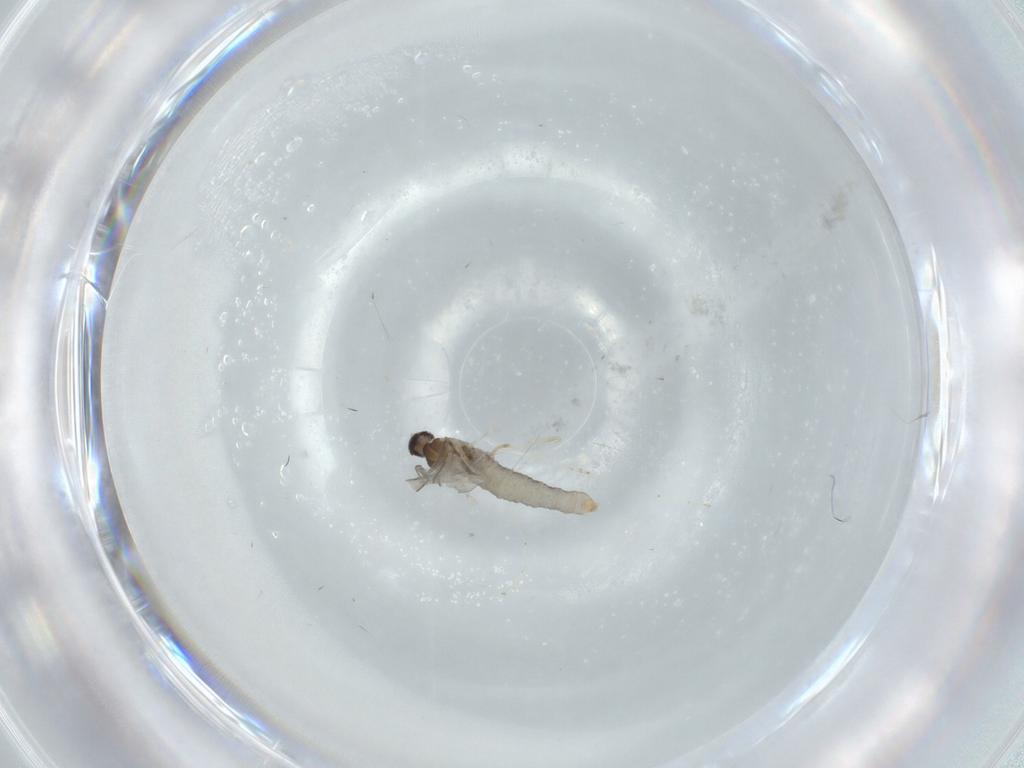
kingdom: Animalia
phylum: Arthropoda
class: Insecta
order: Diptera
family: Cecidomyiidae
